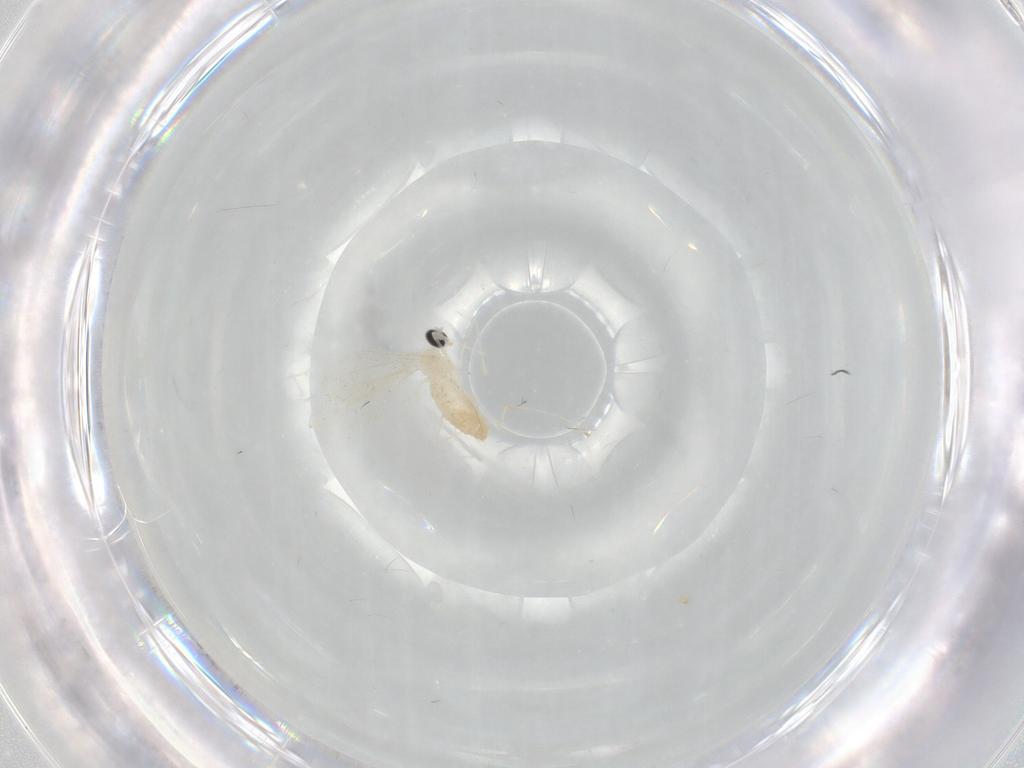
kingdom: Animalia
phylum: Arthropoda
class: Insecta
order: Diptera
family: Cecidomyiidae
